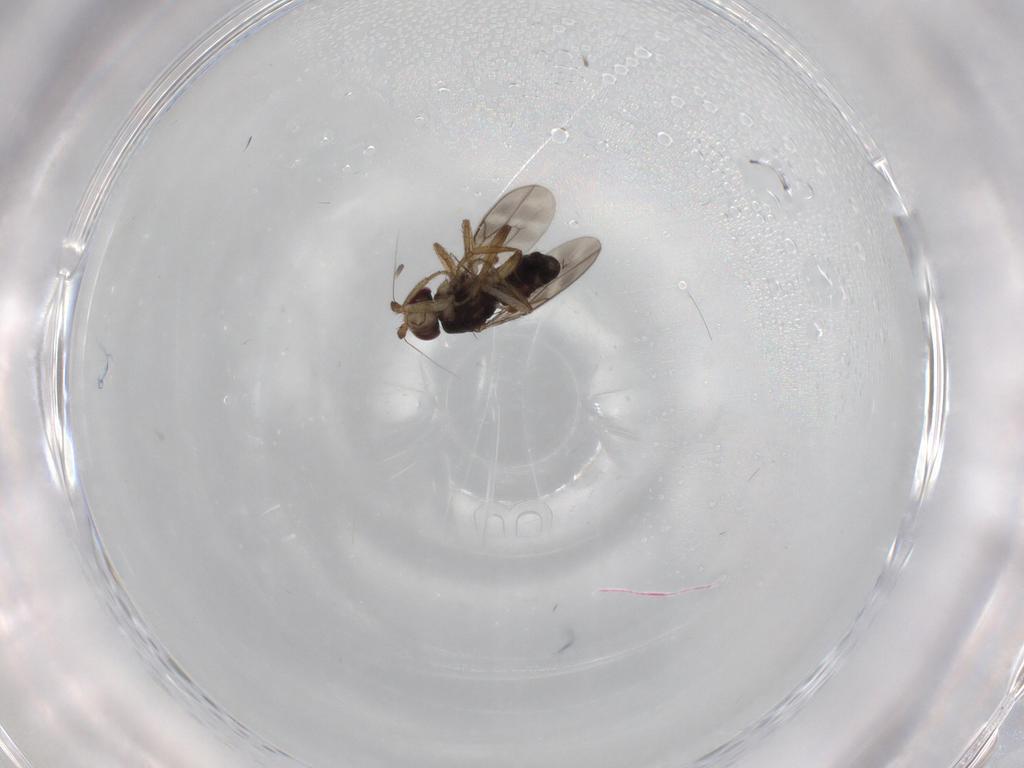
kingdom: Animalia
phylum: Arthropoda
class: Insecta
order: Diptera
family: Sphaeroceridae
